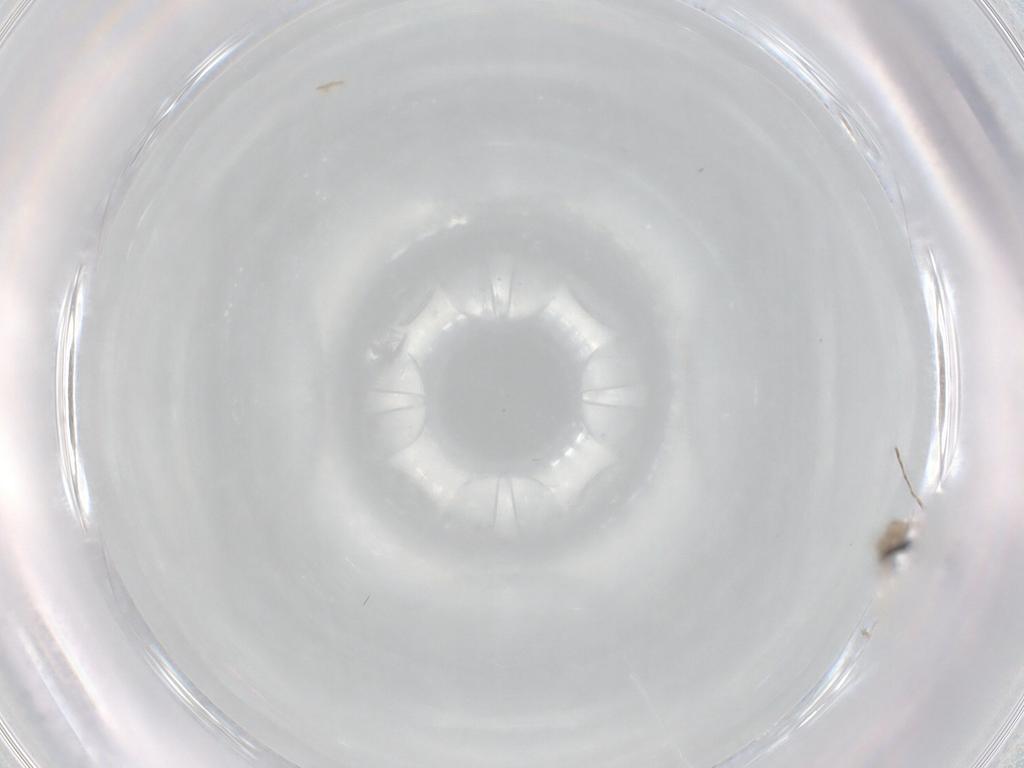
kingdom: Animalia
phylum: Arthropoda
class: Insecta
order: Diptera
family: Cecidomyiidae
